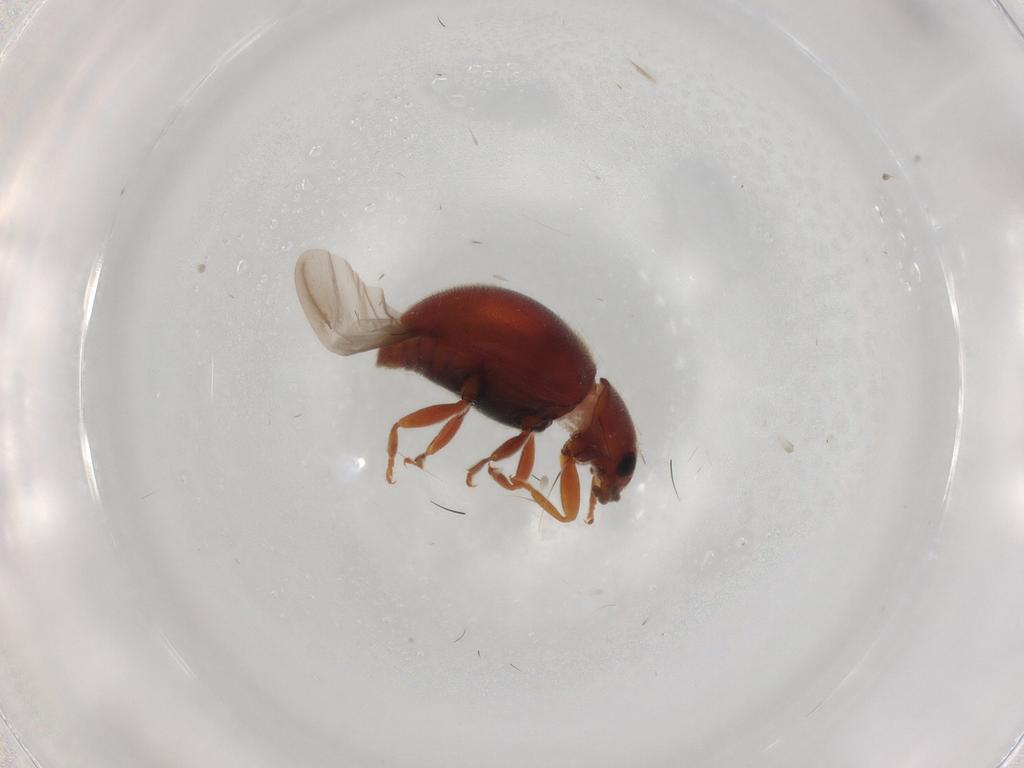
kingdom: Animalia
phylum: Arthropoda
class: Insecta
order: Coleoptera
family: Coccinellidae
